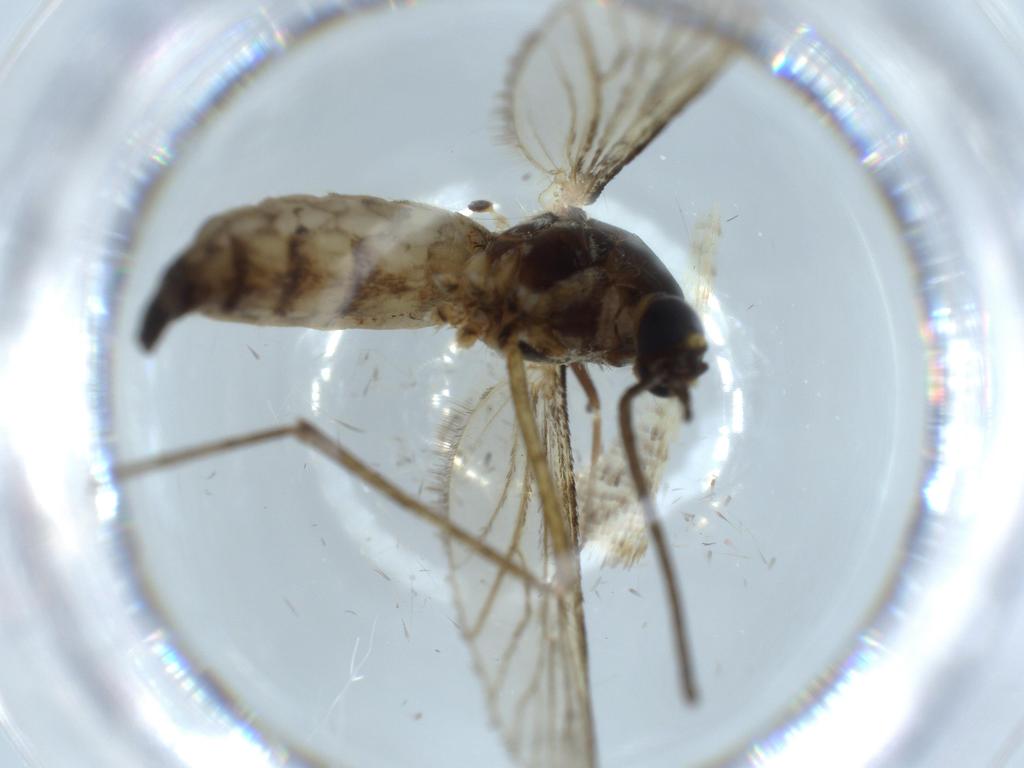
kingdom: Animalia
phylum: Arthropoda
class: Insecta
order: Diptera
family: Culicidae
